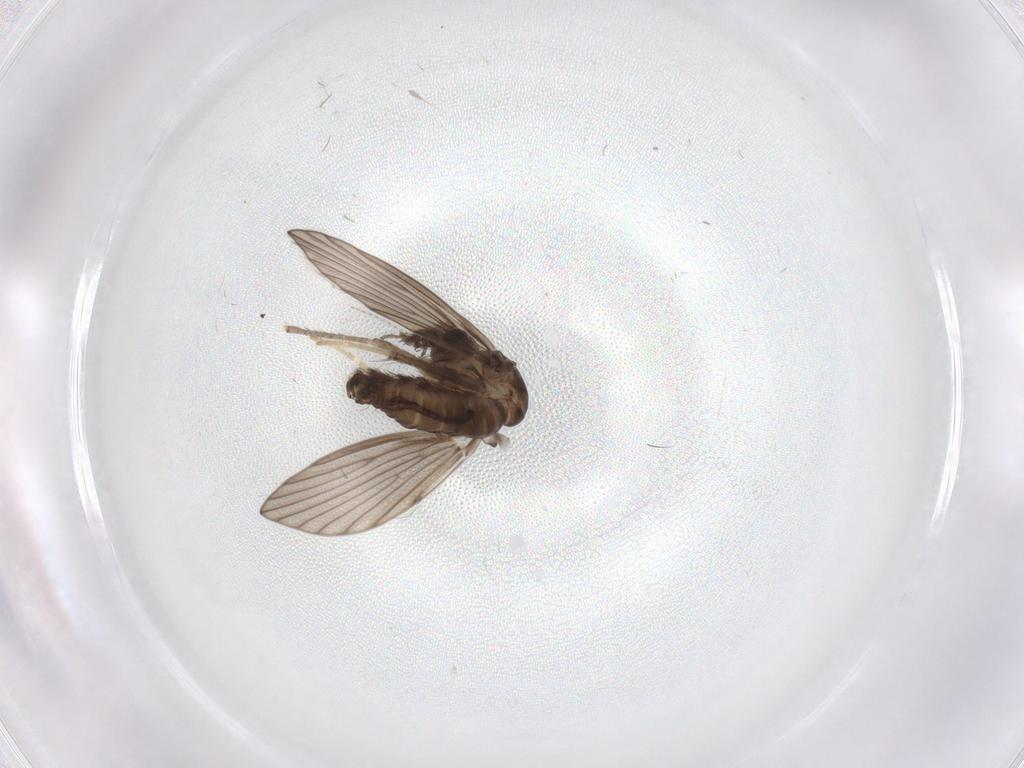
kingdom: Animalia
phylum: Arthropoda
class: Insecta
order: Diptera
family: Psychodidae
